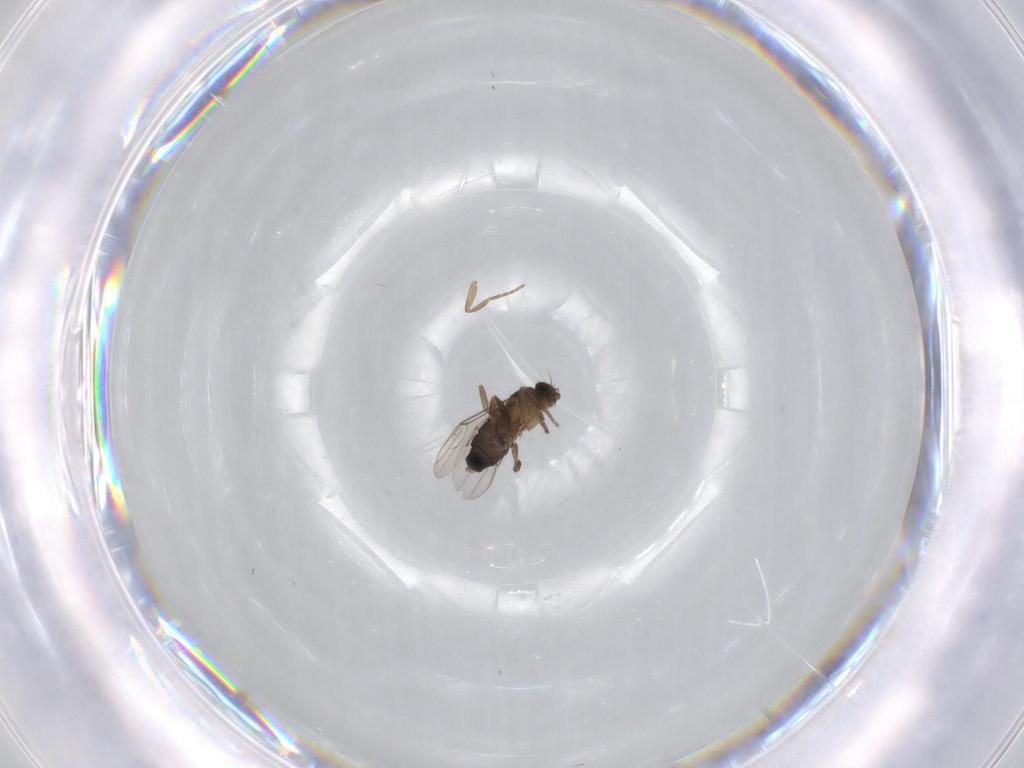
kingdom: Animalia
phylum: Arthropoda
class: Insecta
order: Diptera
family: Phoridae
